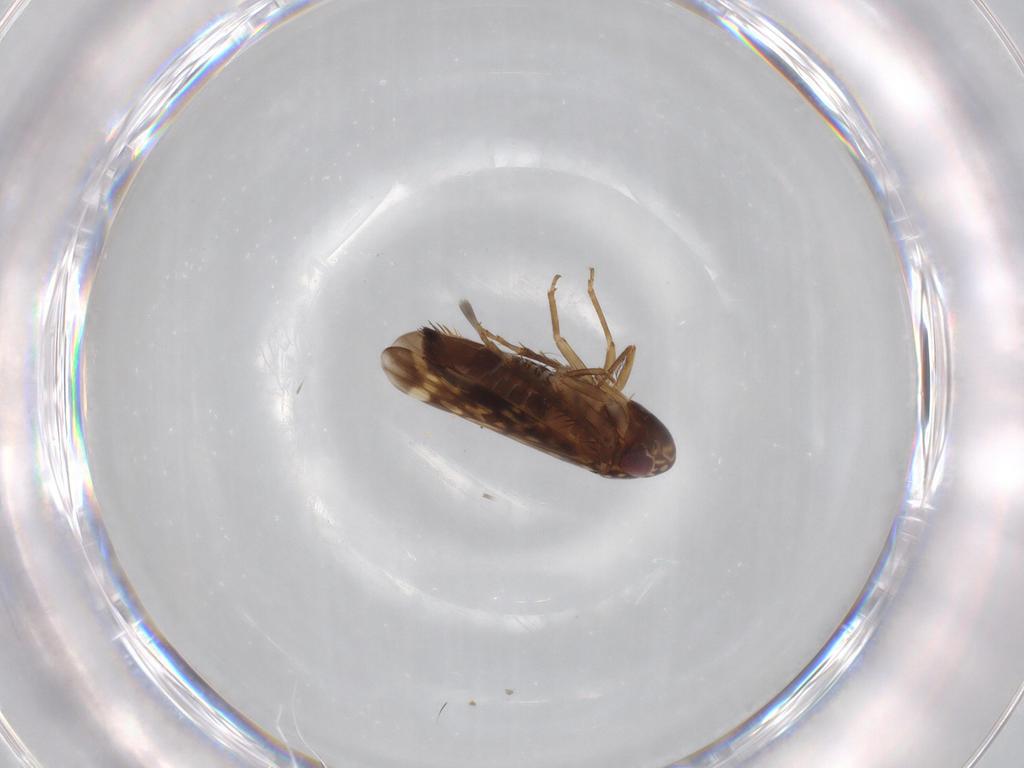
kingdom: Animalia
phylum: Arthropoda
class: Insecta
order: Hemiptera
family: Cicadellidae
